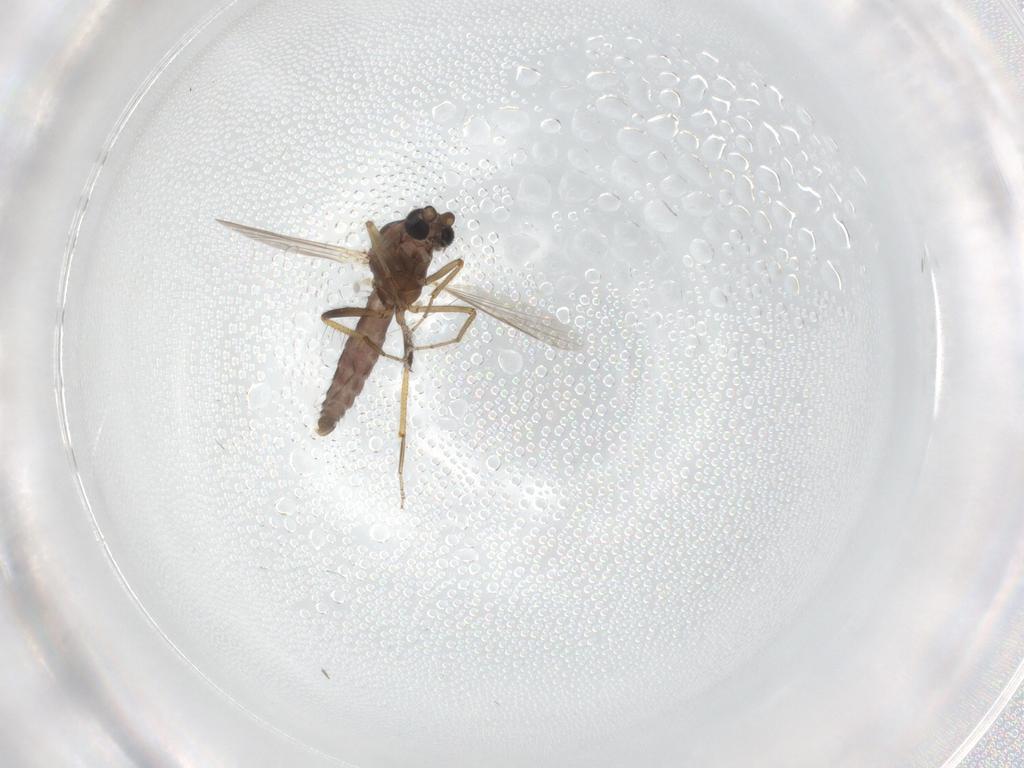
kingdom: Animalia
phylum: Arthropoda
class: Insecta
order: Diptera
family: Ceratopogonidae
